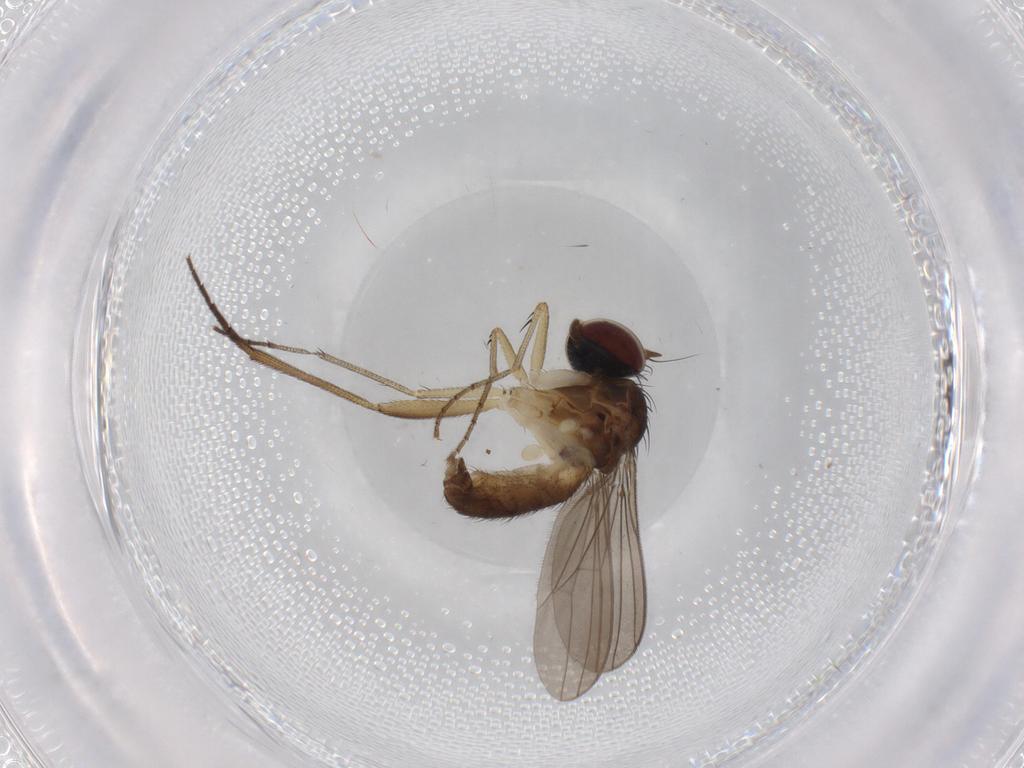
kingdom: Animalia
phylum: Arthropoda
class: Insecta
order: Diptera
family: Dolichopodidae
